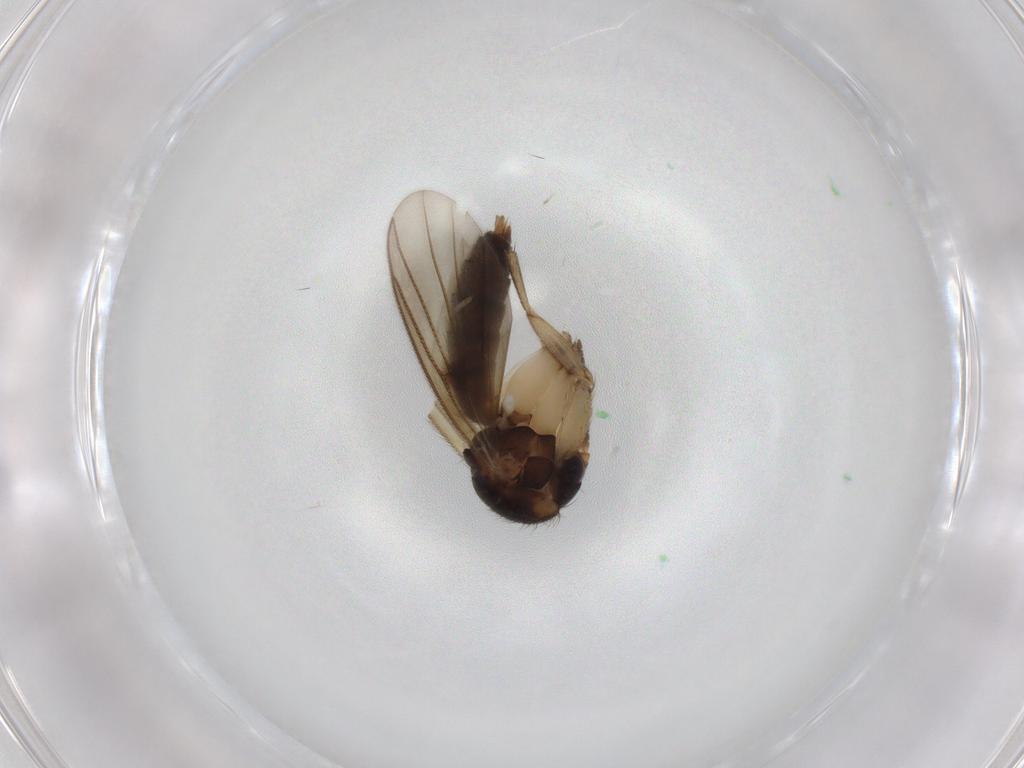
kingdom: Animalia
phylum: Arthropoda
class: Insecta
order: Diptera
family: Mycetophilidae
